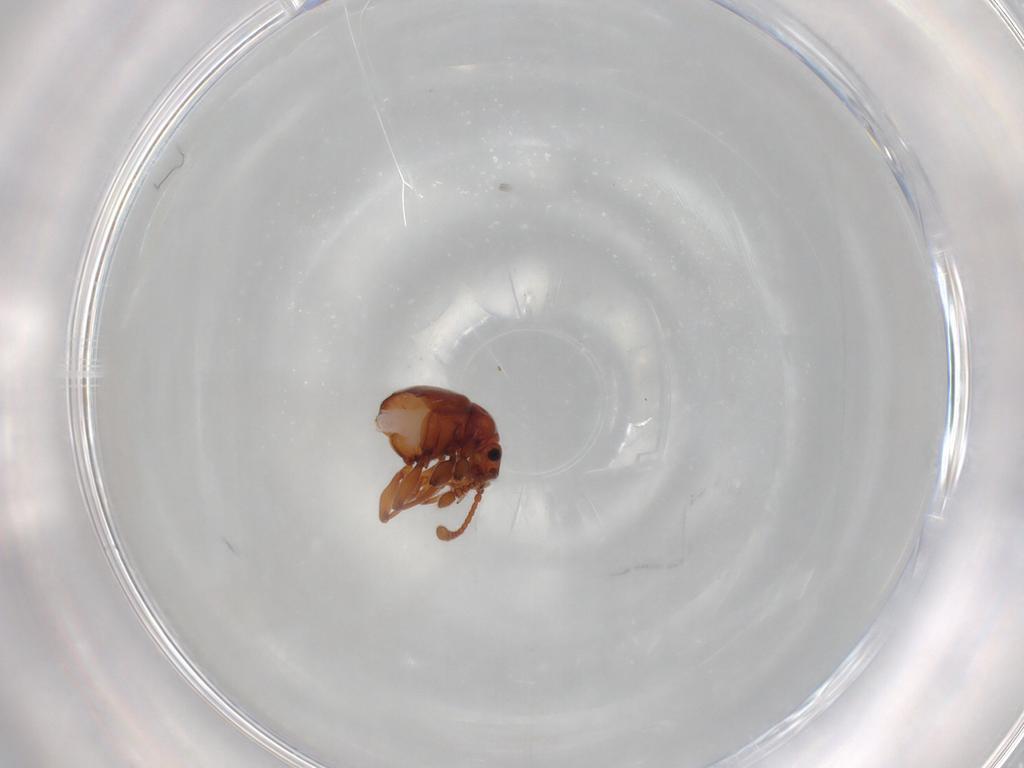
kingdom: Animalia
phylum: Arthropoda
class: Insecta
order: Coleoptera
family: Staphylinidae
